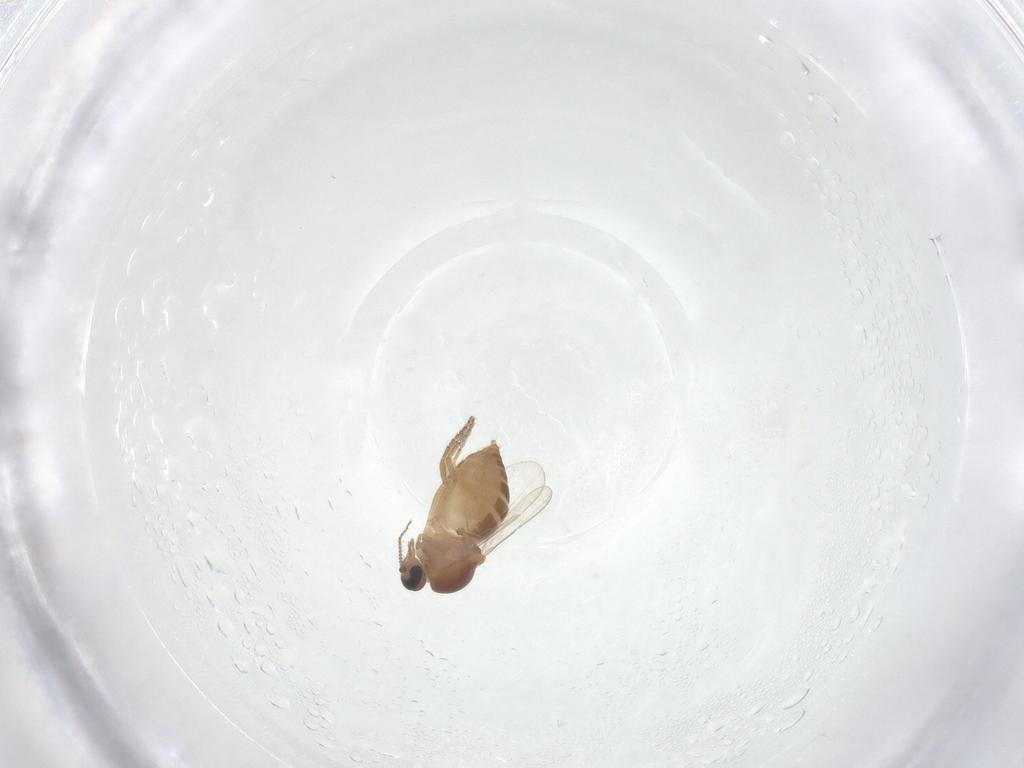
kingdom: Animalia
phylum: Arthropoda
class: Insecta
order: Diptera
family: Ceratopogonidae
